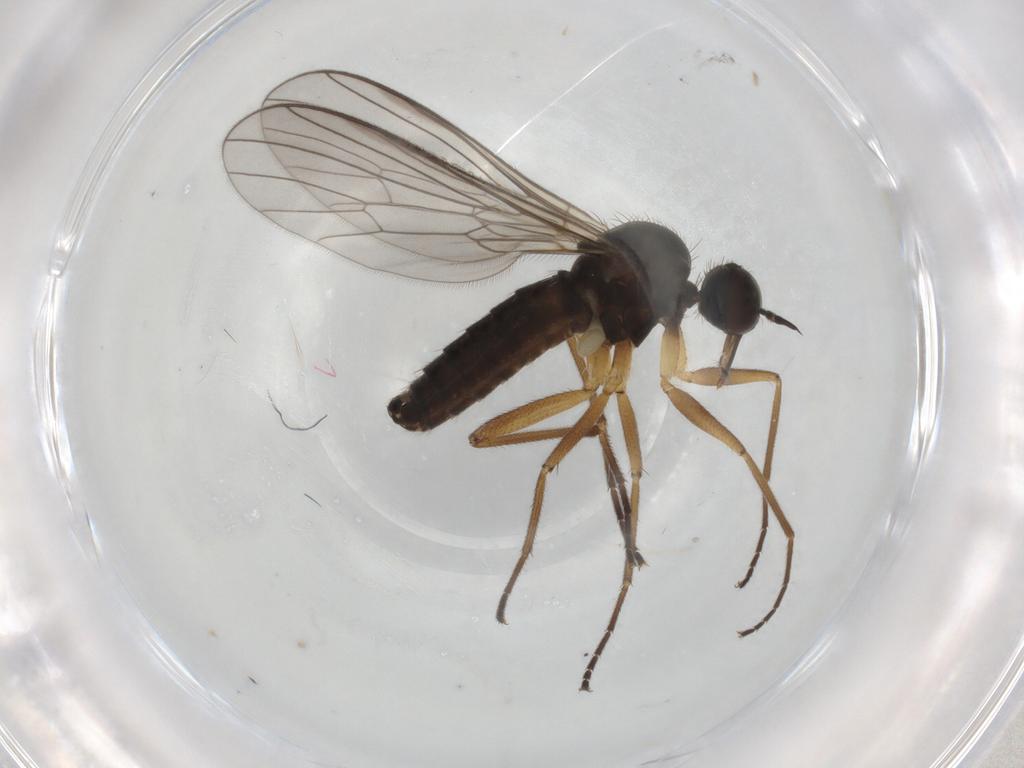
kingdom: Animalia
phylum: Arthropoda
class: Insecta
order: Diptera
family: Empididae
